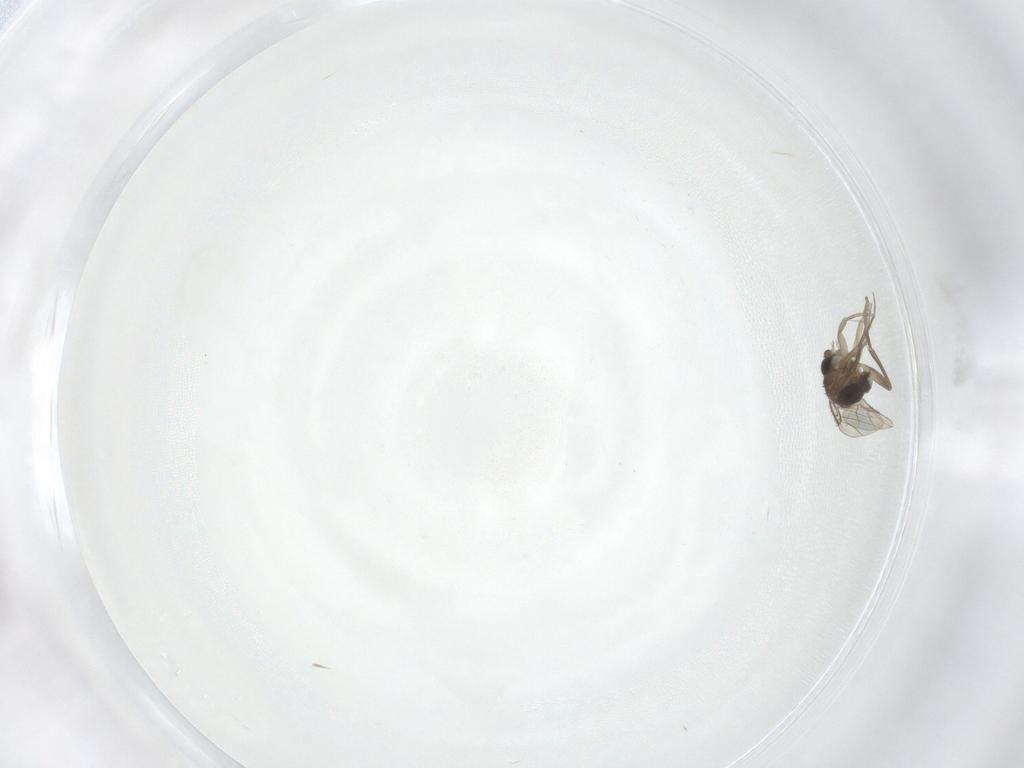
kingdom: Animalia
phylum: Arthropoda
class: Insecta
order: Diptera
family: Phoridae
